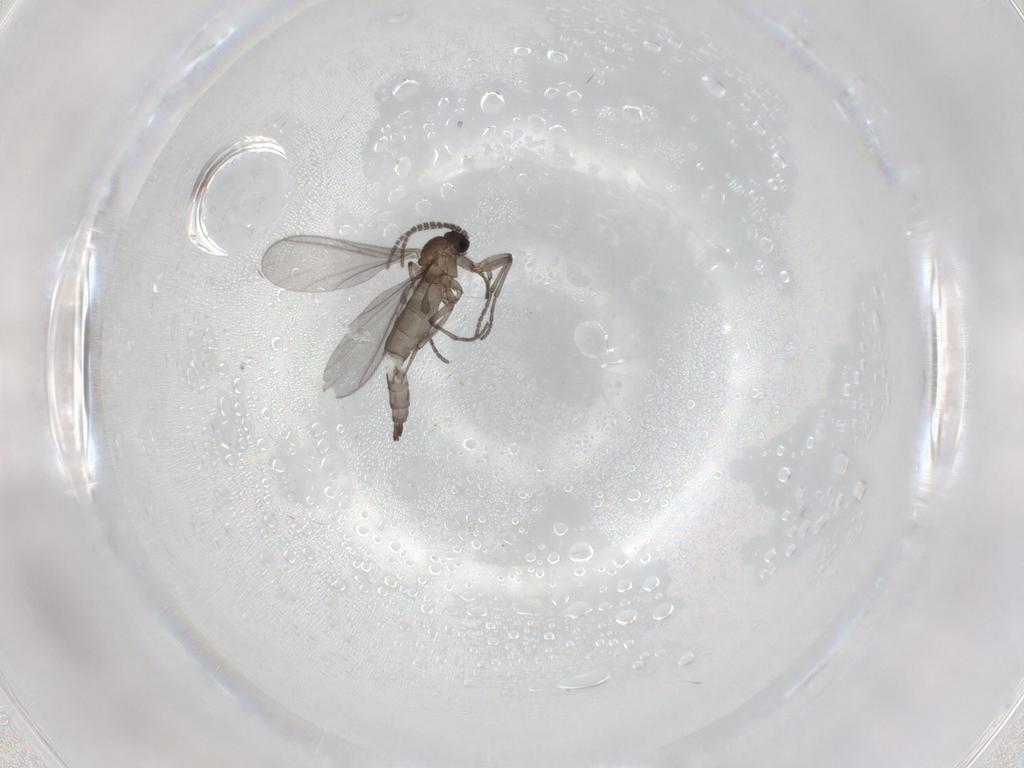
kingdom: Animalia
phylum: Arthropoda
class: Insecta
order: Diptera
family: Sciaridae
